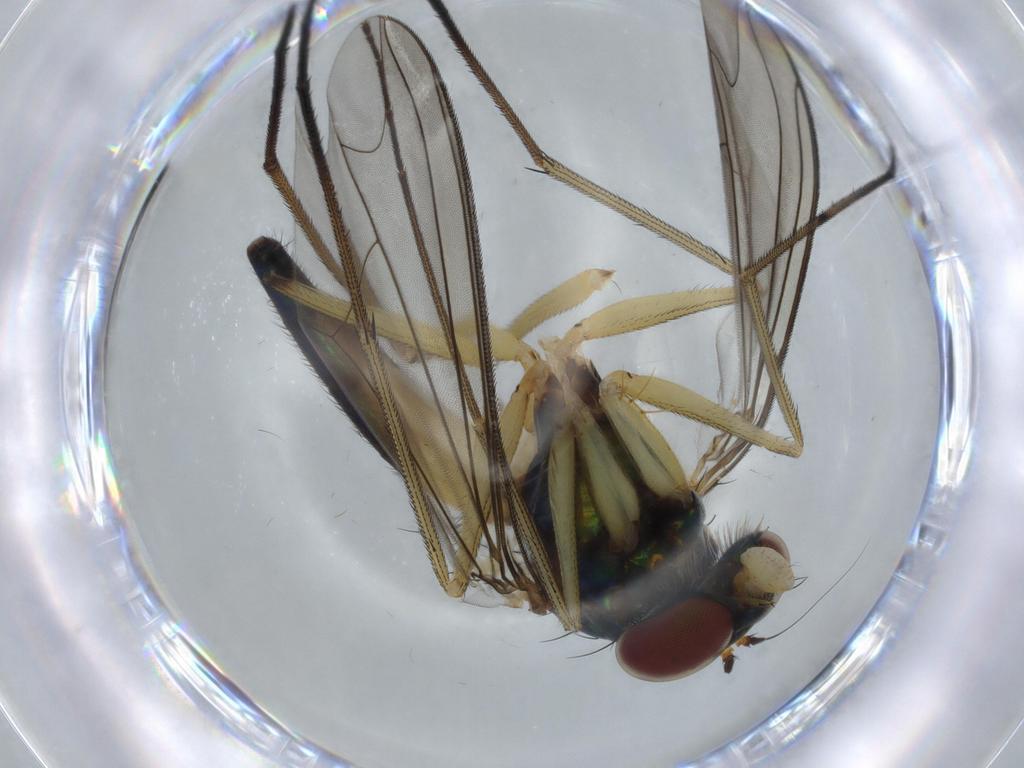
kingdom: Animalia
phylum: Arthropoda
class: Insecta
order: Diptera
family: Dolichopodidae
